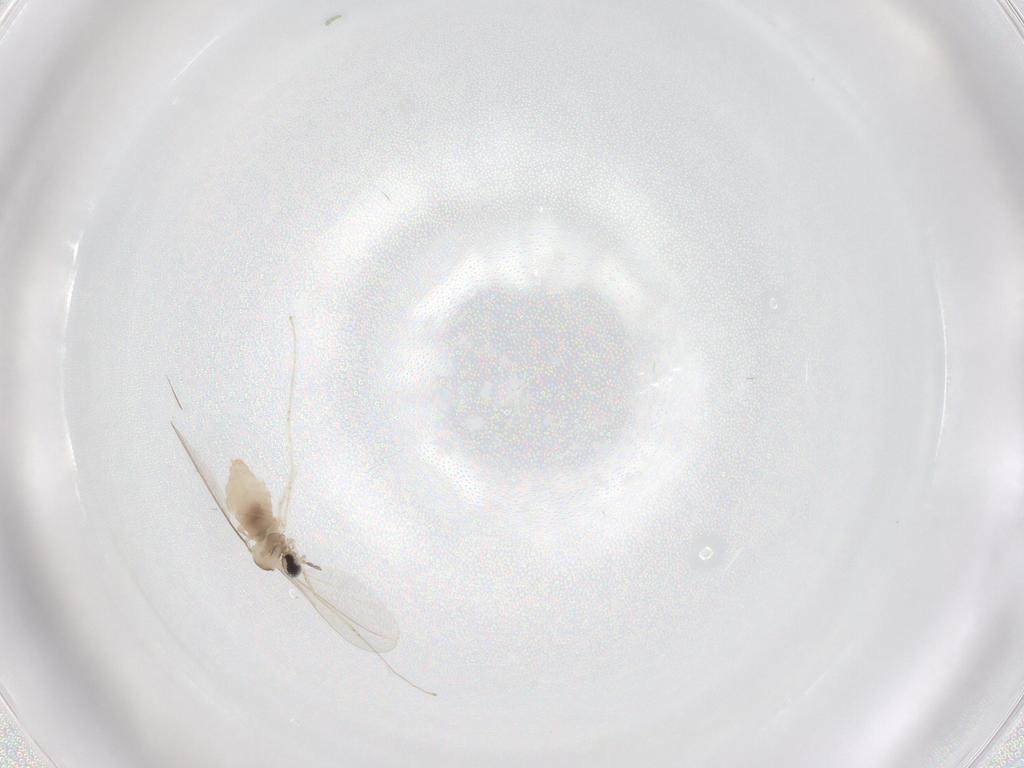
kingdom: Animalia
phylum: Arthropoda
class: Insecta
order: Diptera
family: Cecidomyiidae
